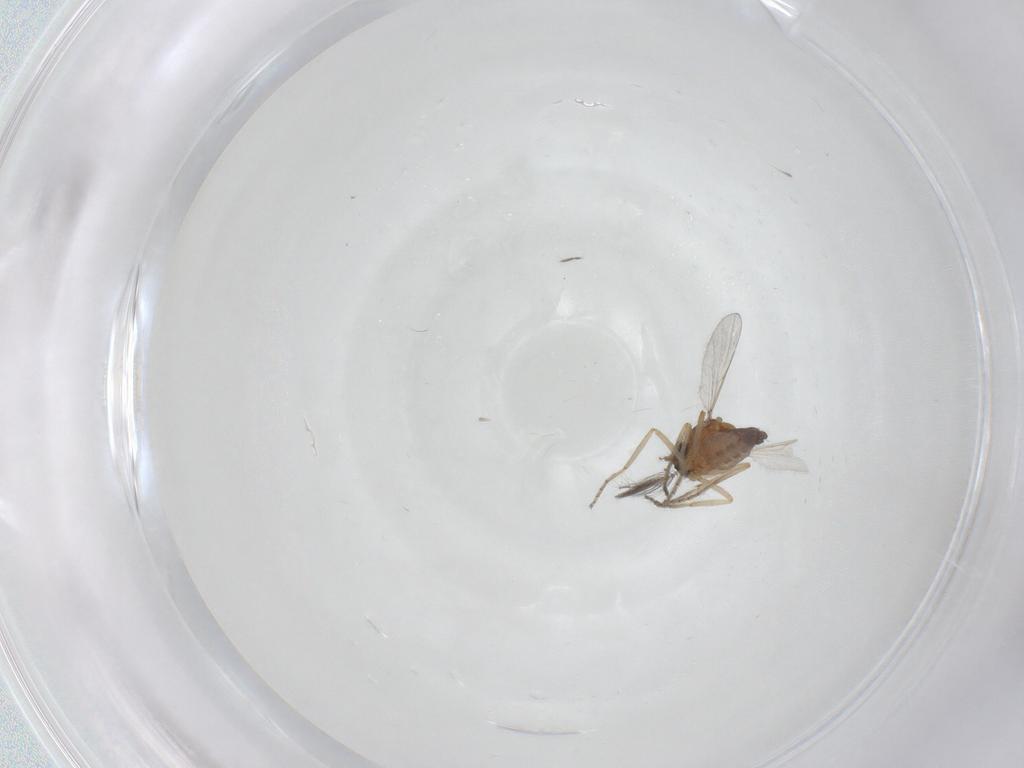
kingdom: Animalia
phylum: Arthropoda
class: Insecta
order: Diptera
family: Ceratopogonidae
